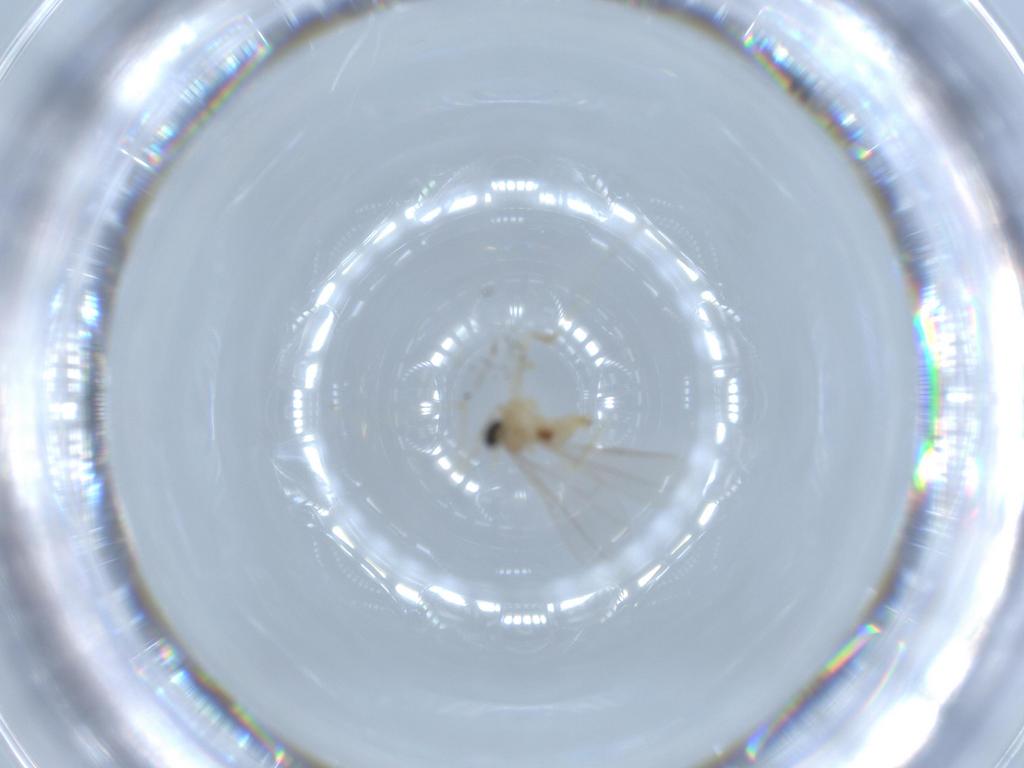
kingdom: Animalia
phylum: Arthropoda
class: Insecta
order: Diptera
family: Cecidomyiidae
